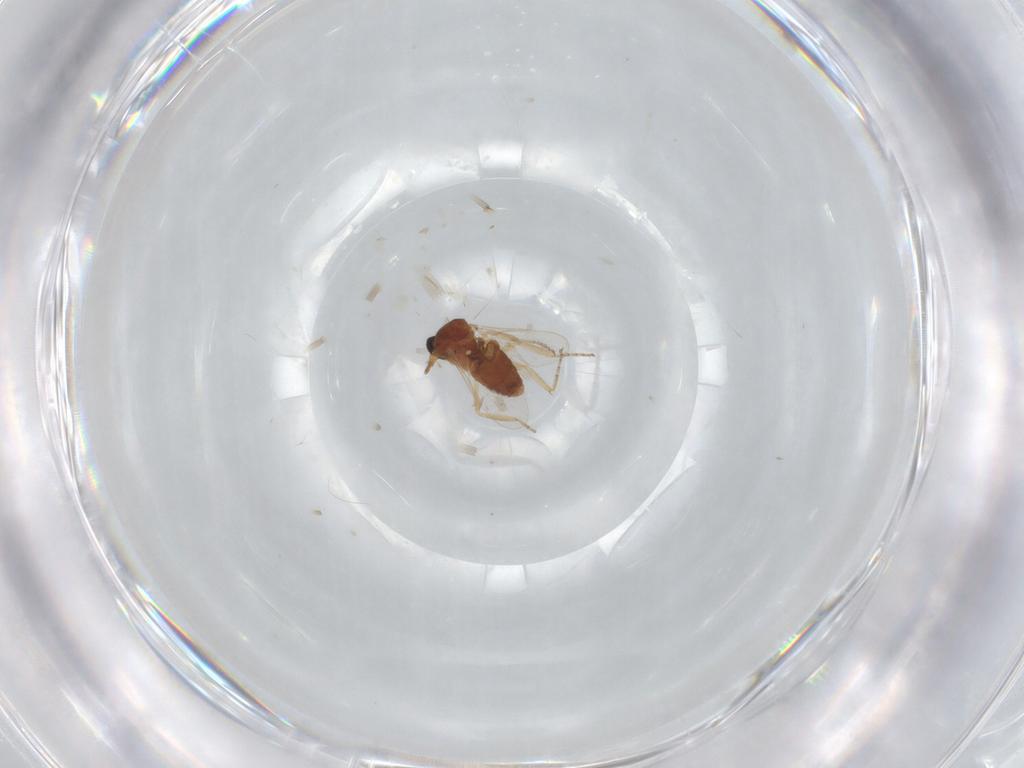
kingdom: Animalia
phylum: Arthropoda
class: Insecta
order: Diptera
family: Ceratopogonidae
